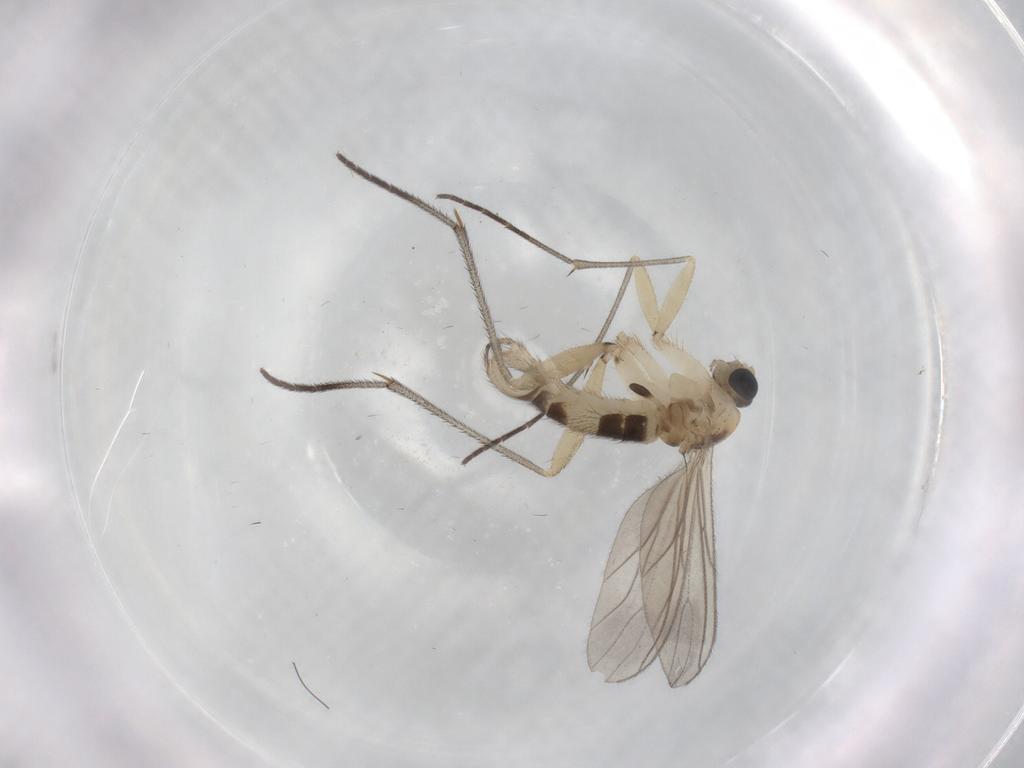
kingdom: Animalia
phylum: Arthropoda
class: Insecta
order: Diptera
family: Cecidomyiidae
